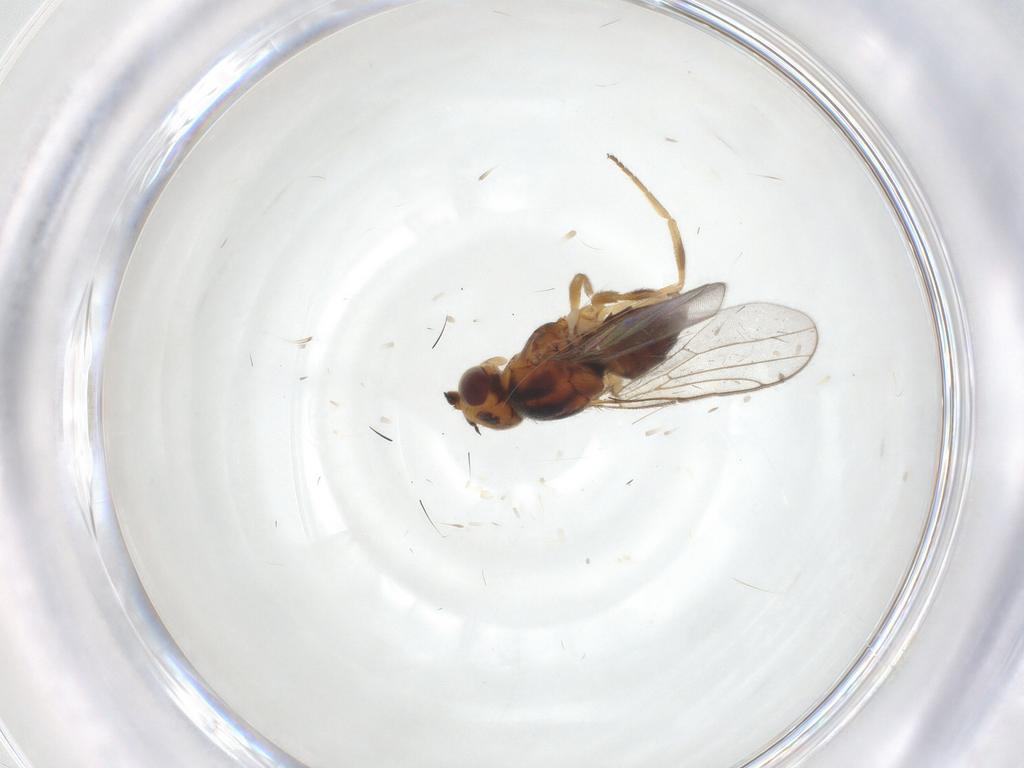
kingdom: Animalia
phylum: Arthropoda
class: Insecta
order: Diptera
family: Chloropidae
